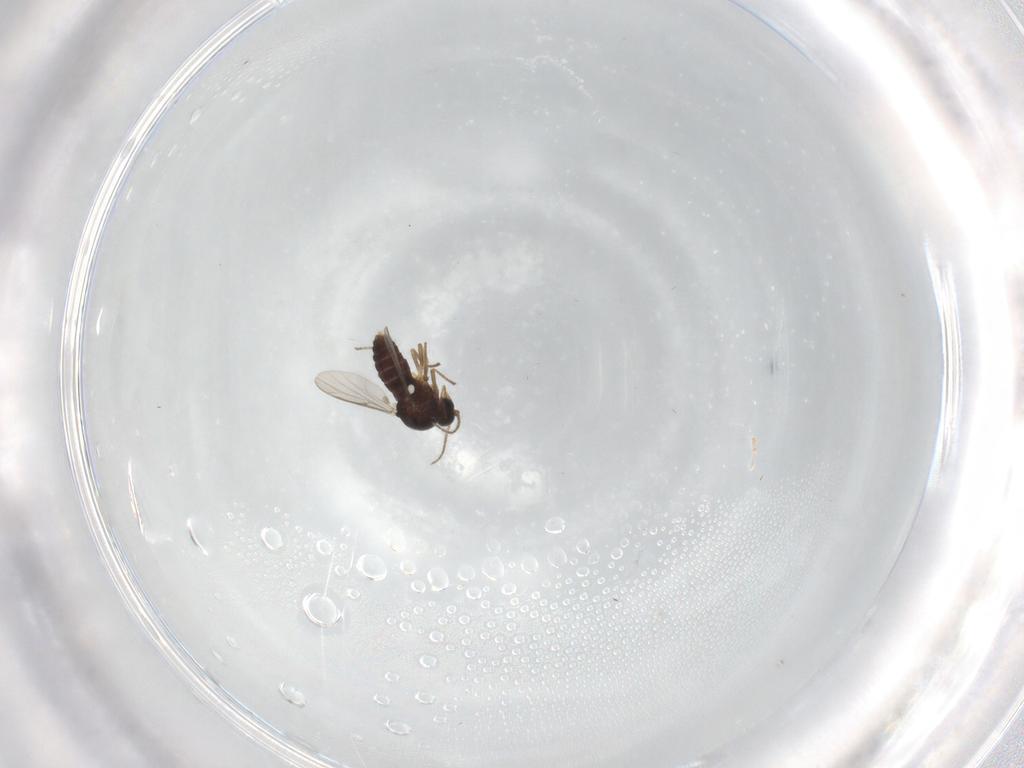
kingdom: Animalia
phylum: Arthropoda
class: Insecta
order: Diptera
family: Ceratopogonidae
